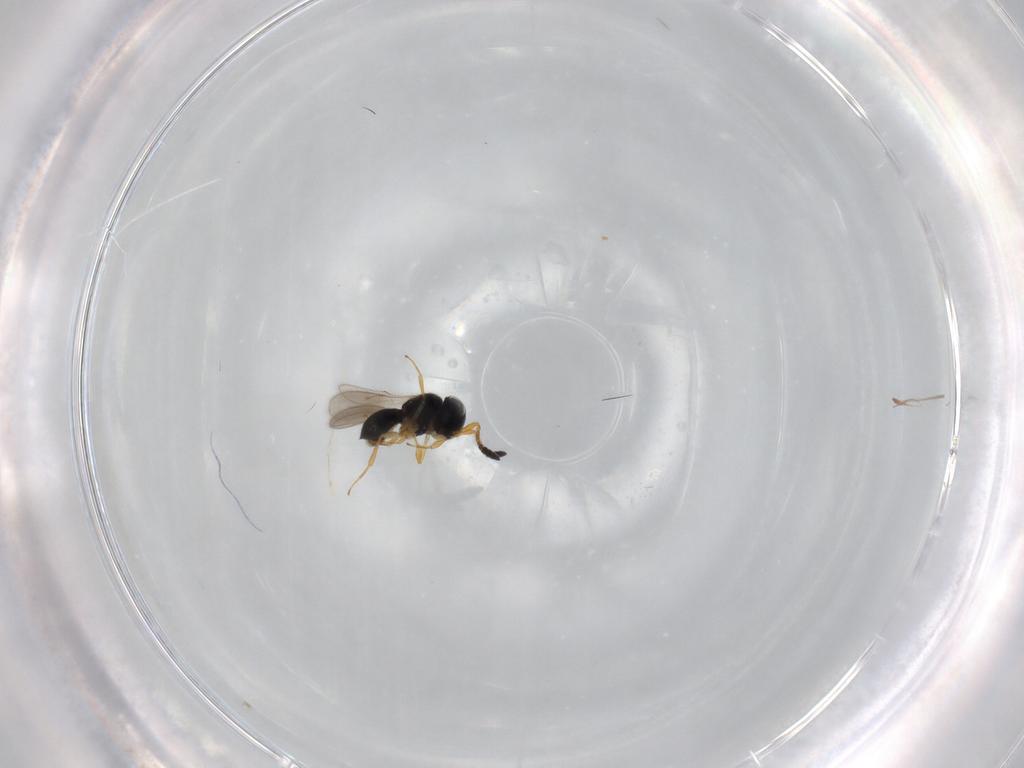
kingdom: Animalia
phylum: Arthropoda
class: Insecta
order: Hymenoptera
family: Scelionidae
